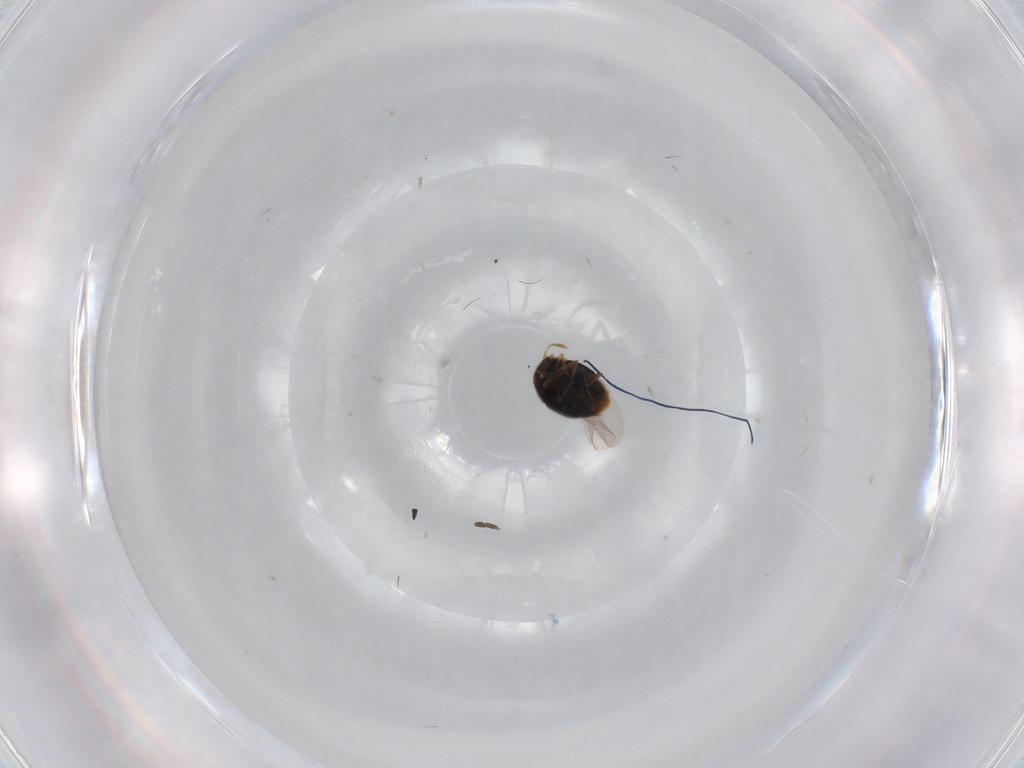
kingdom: Animalia
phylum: Arthropoda
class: Insecta
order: Coleoptera
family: Staphylinidae
